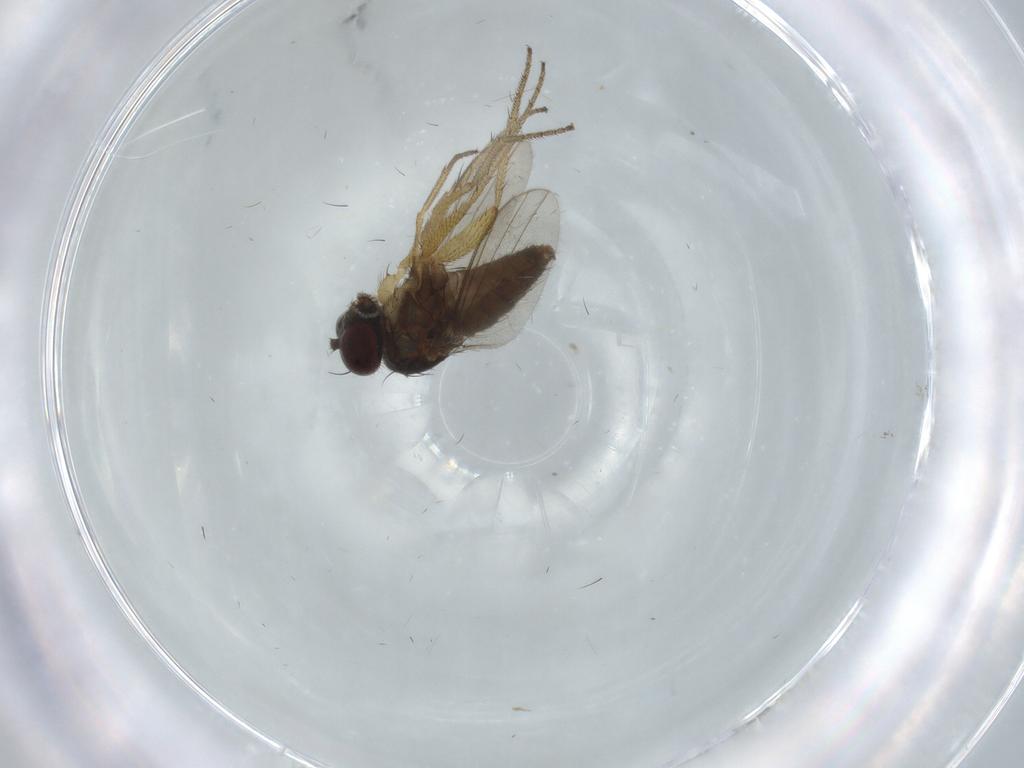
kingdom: Animalia
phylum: Arthropoda
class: Insecta
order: Diptera
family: Dolichopodidae
